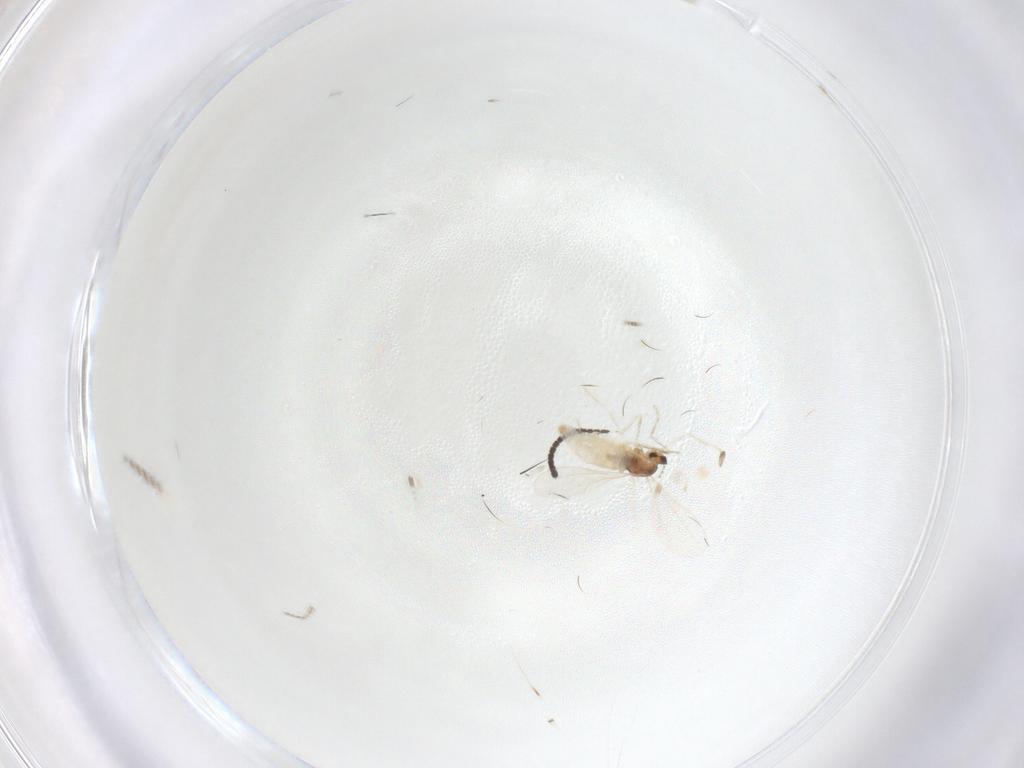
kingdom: Animalia
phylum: Arthropoda
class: Insecta
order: Diptera
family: Cecidomyiidae
